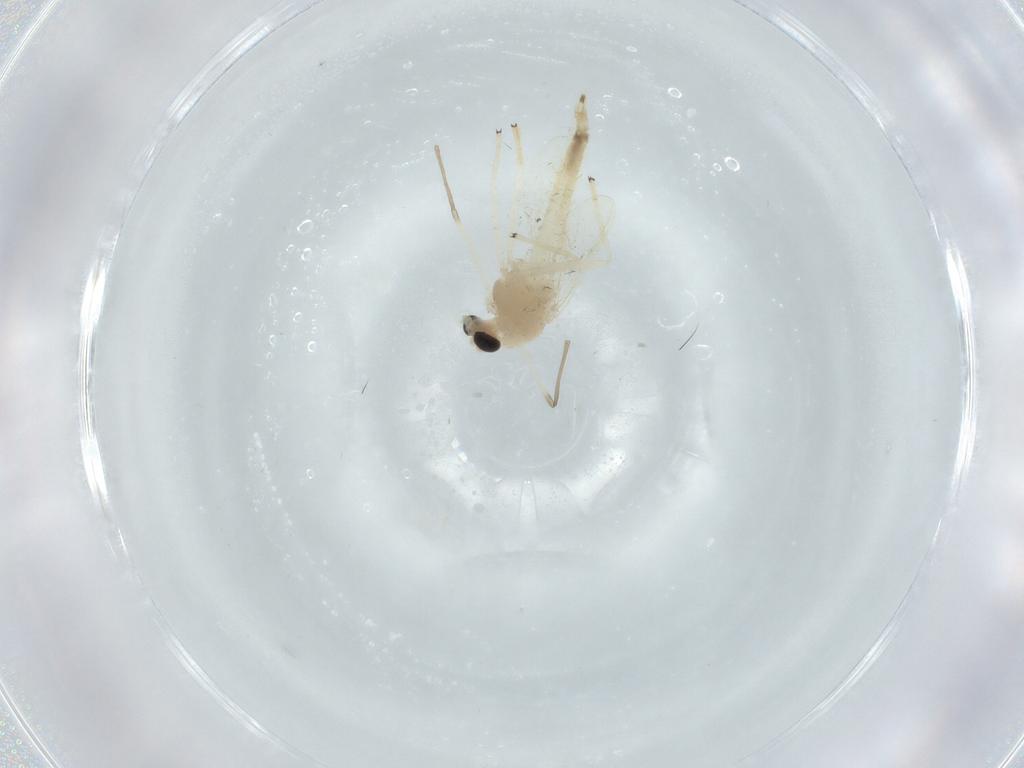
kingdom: Animalia
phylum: Arthropoda
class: Insecta
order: Diptera
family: Chironomidae
